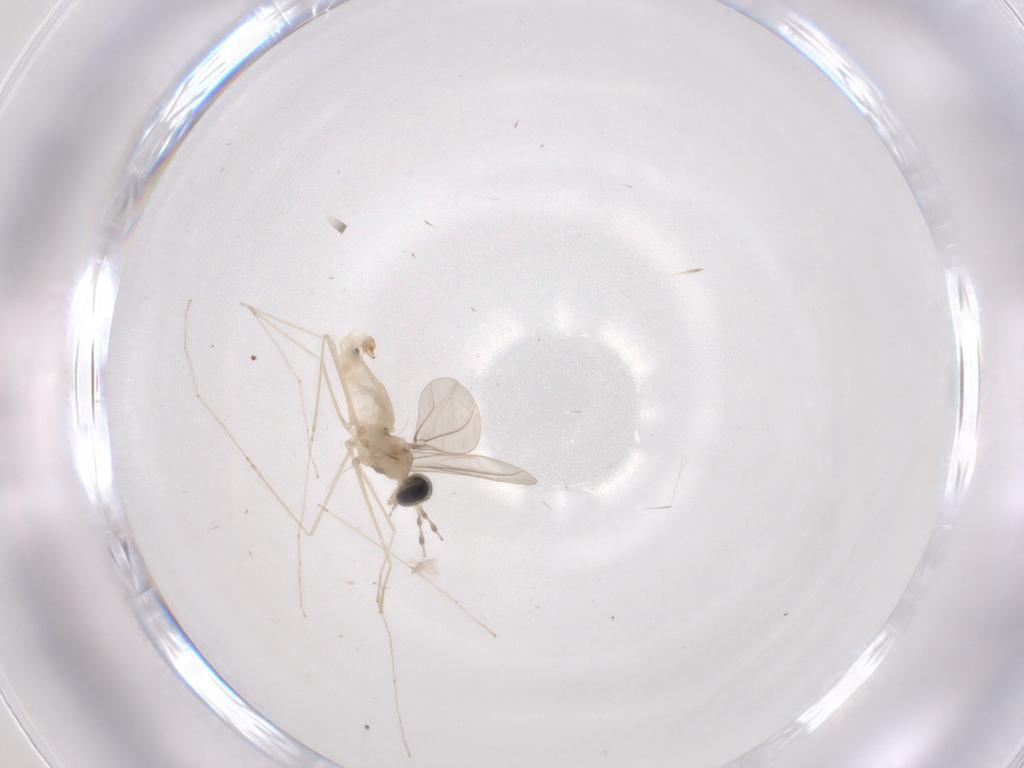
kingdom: Animalia
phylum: Arthropoda
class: Insecta
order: Diptera
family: Cecidomyiidae
